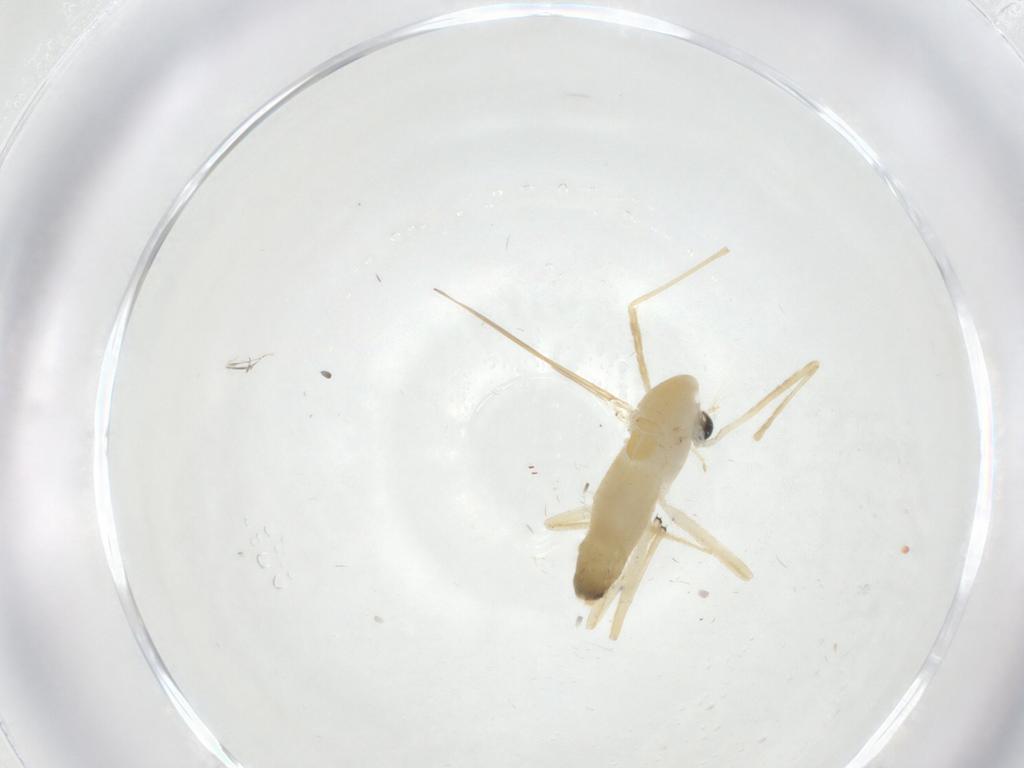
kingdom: Animalia
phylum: Arthropoda
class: Insecta
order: Diptera
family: Chironomidae
